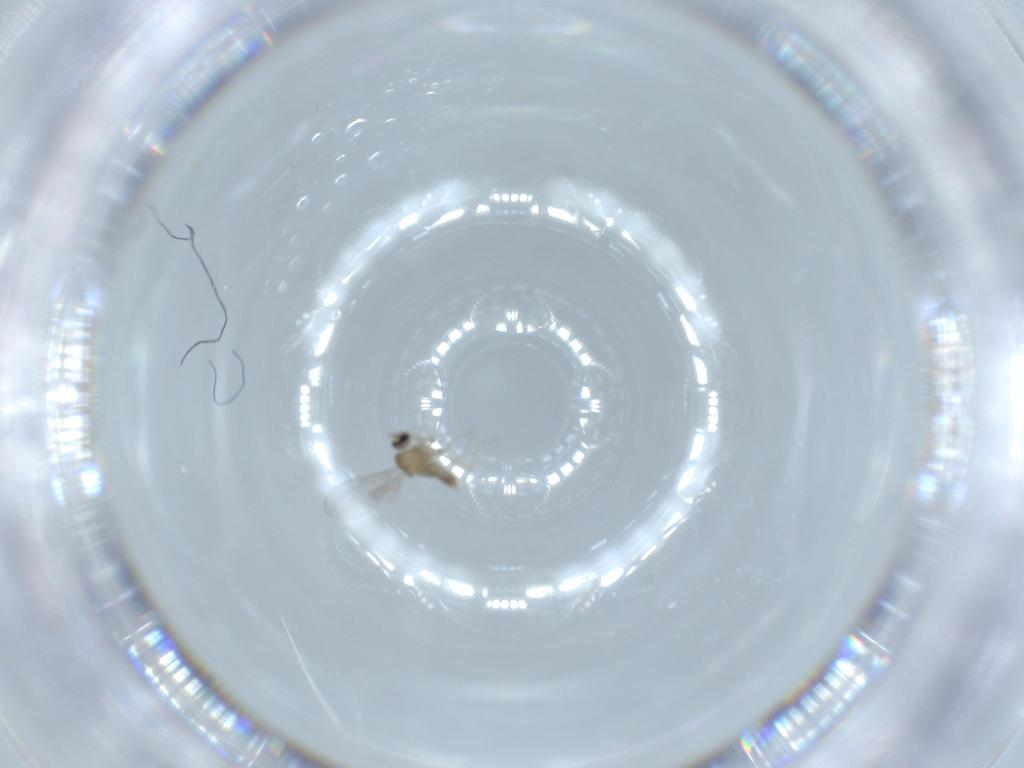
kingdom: Animalia
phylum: Arthropoda
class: Insecta
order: Diptera
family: Cecidomyiidae
